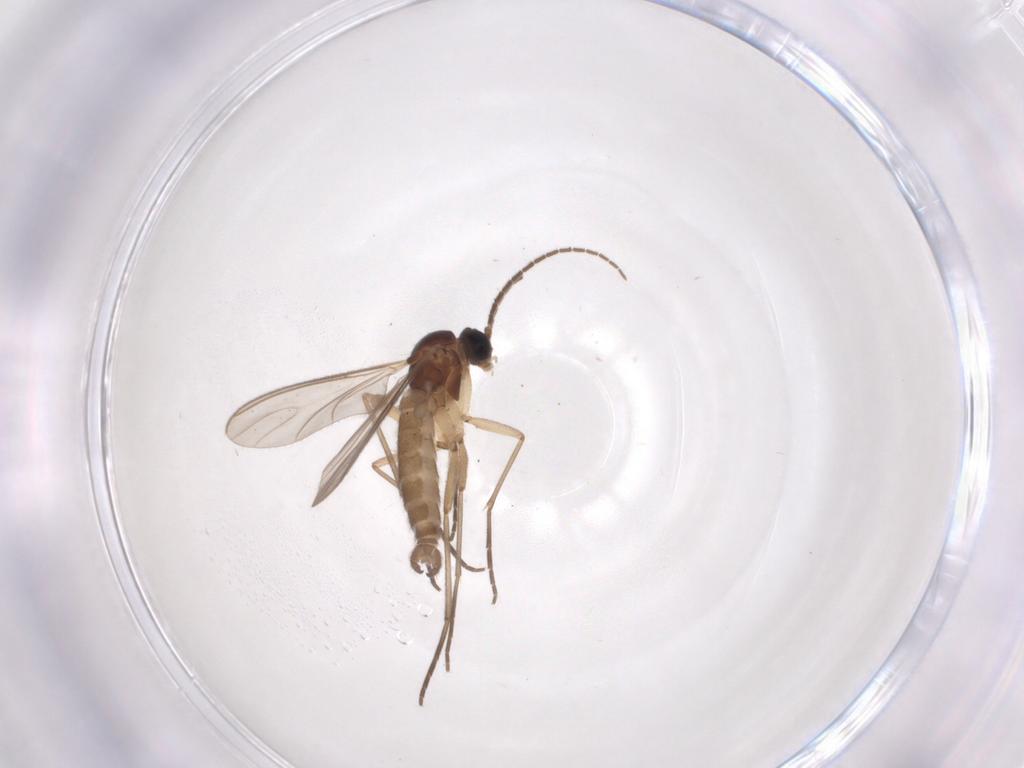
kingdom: Animalia
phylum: Arthropoda
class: Insecta
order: Diptera
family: Sciaridae
